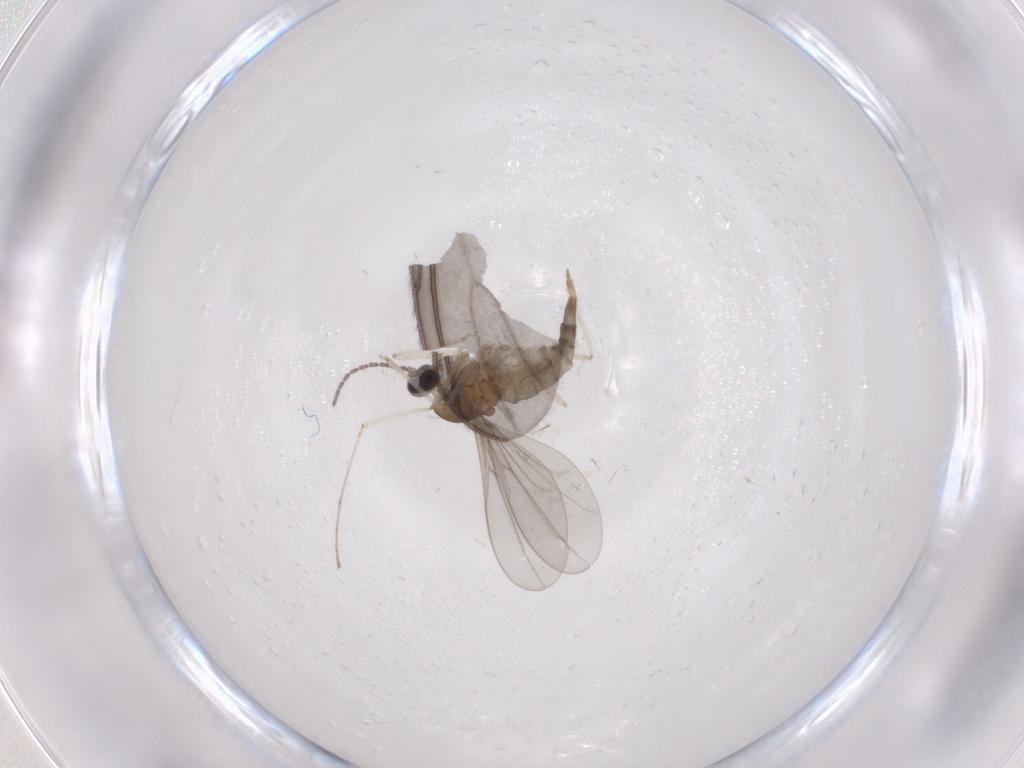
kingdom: Animalia
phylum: Arthropoda
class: Insecta
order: Diptera
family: Cecidomyiidae
